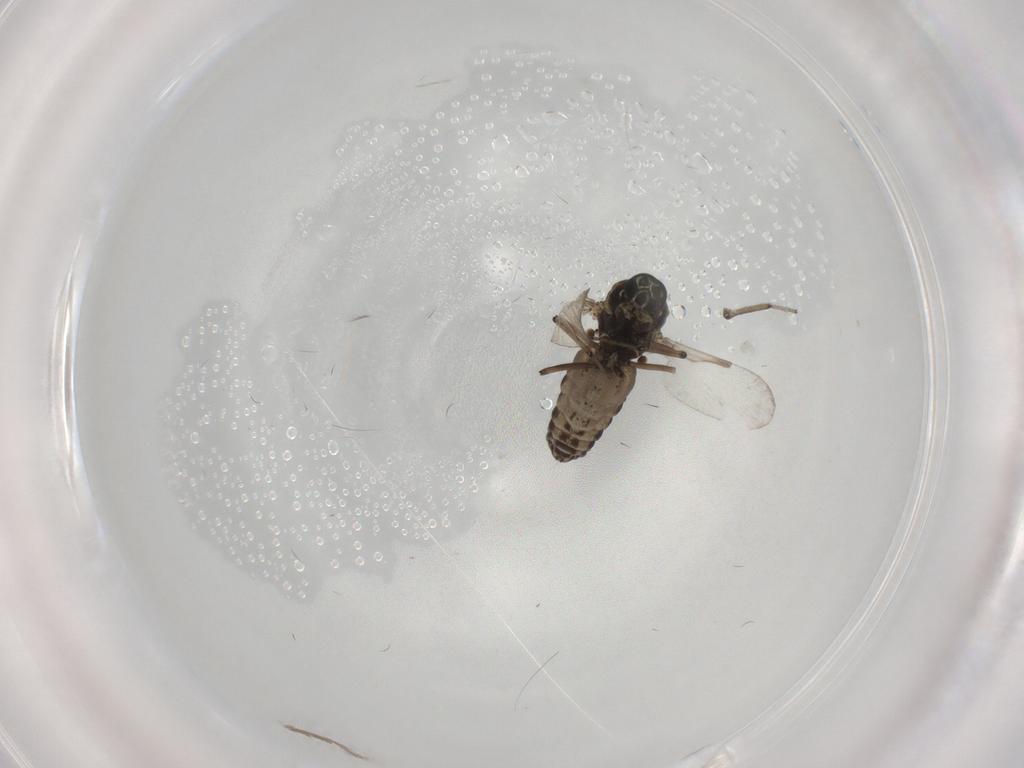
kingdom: Animalia
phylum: Arthropoda
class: Insecta
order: Diptera
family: Ceratopogonidae
